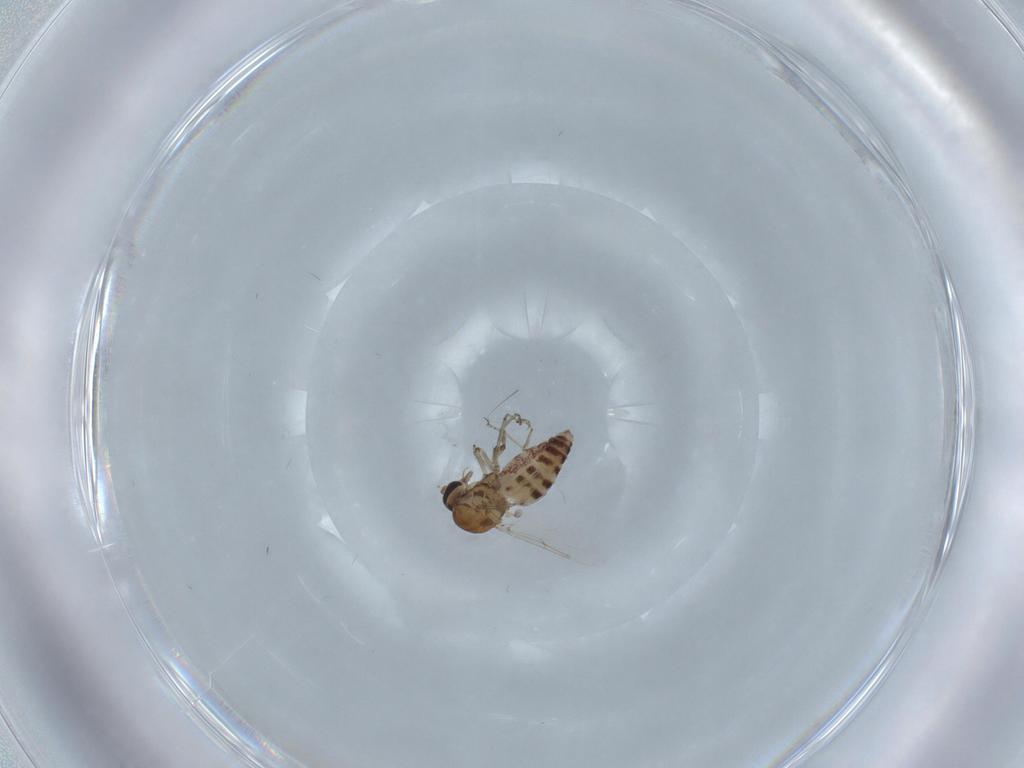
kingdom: Animalia
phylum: Arthropoda
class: Insecta
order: Diptera
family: Ceratopogonidae
